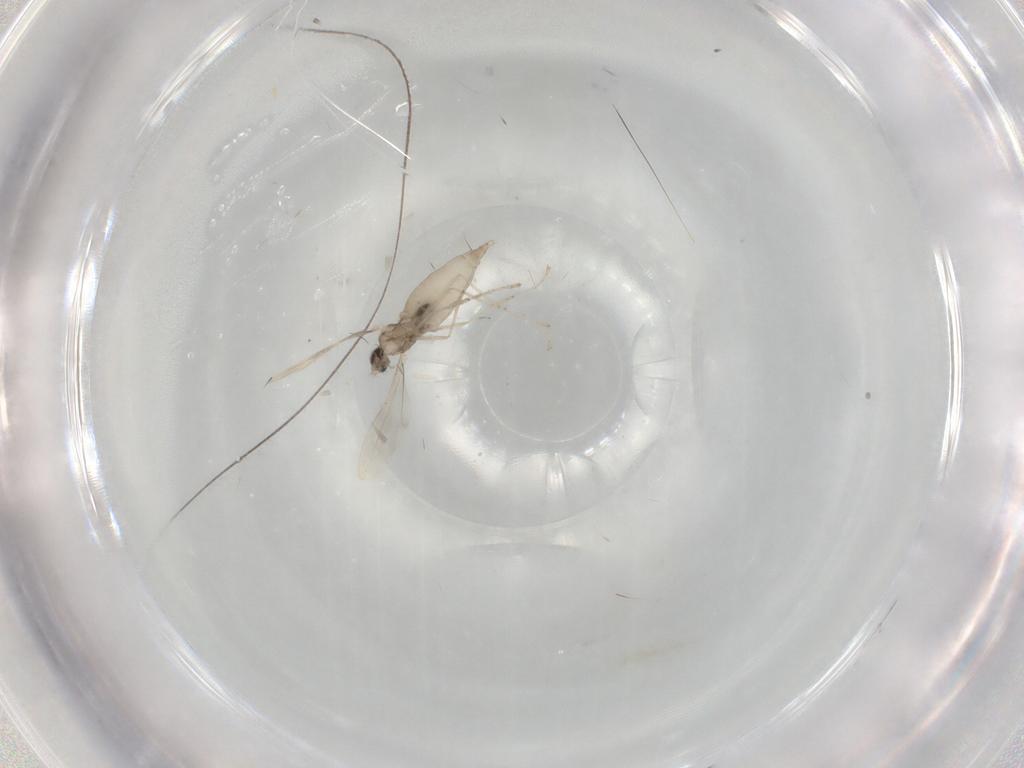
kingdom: Animalia
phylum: Arthropoda
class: Insecta
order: Diptera
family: Cecidomyiidae
